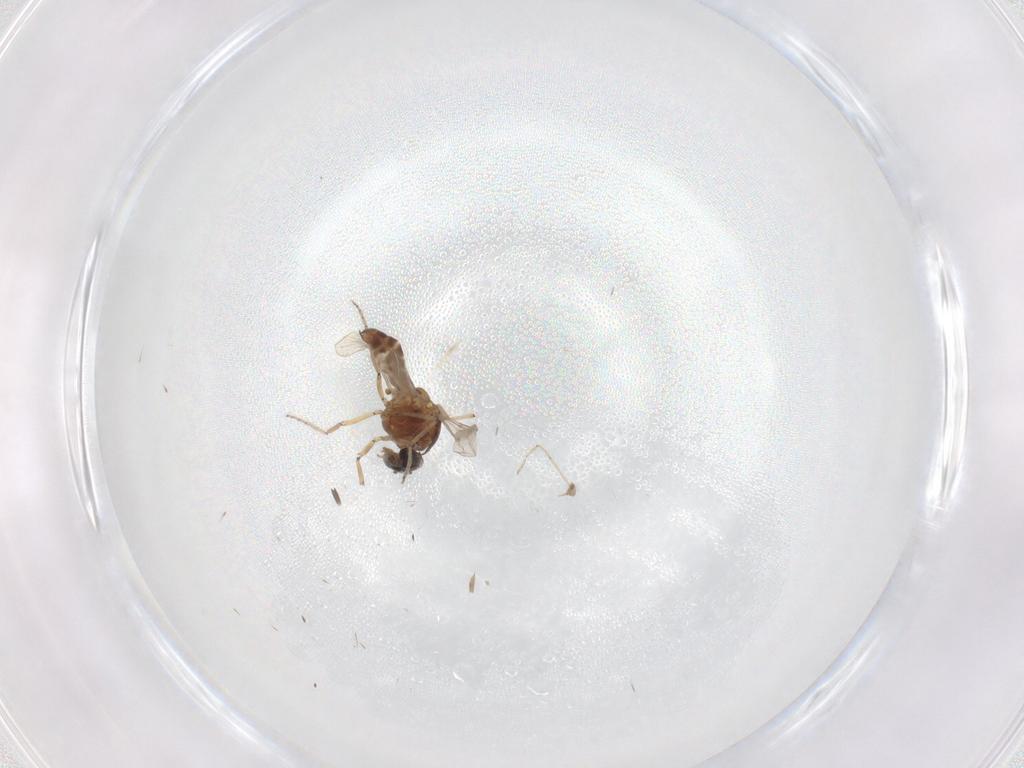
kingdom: Animalia
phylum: Arthropoda
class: Insecta
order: Diptera
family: Ceratopogonidae
